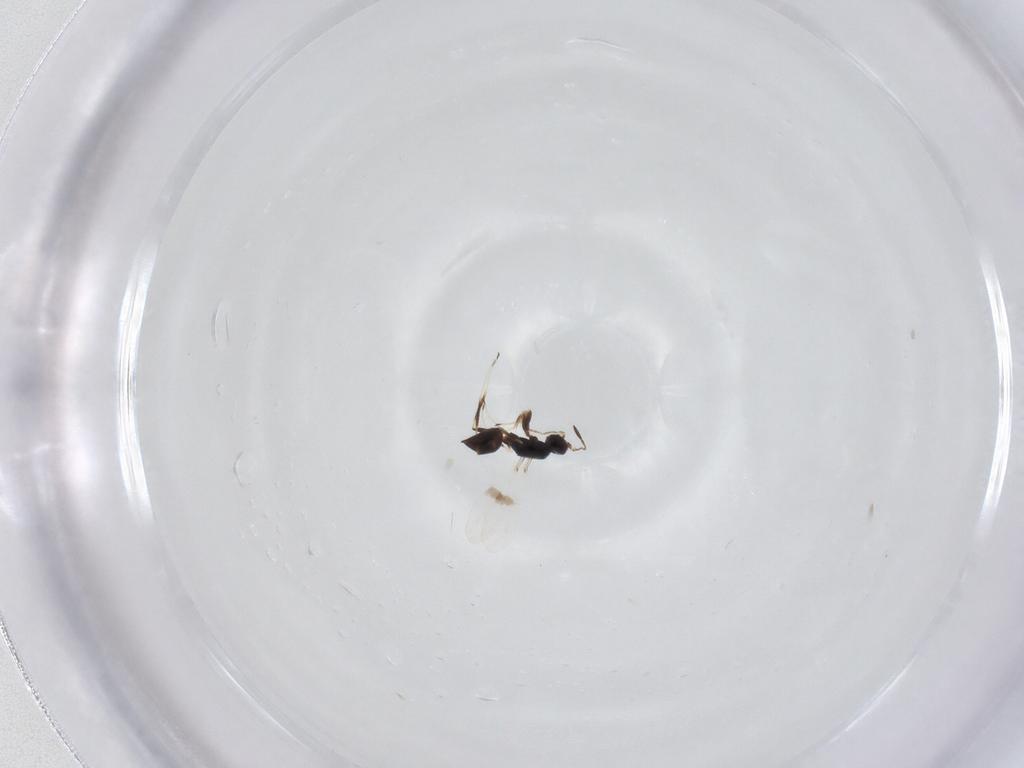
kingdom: Animalia
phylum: Arthropoda
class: Insecta
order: Hymenoptera
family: Mymaridae
